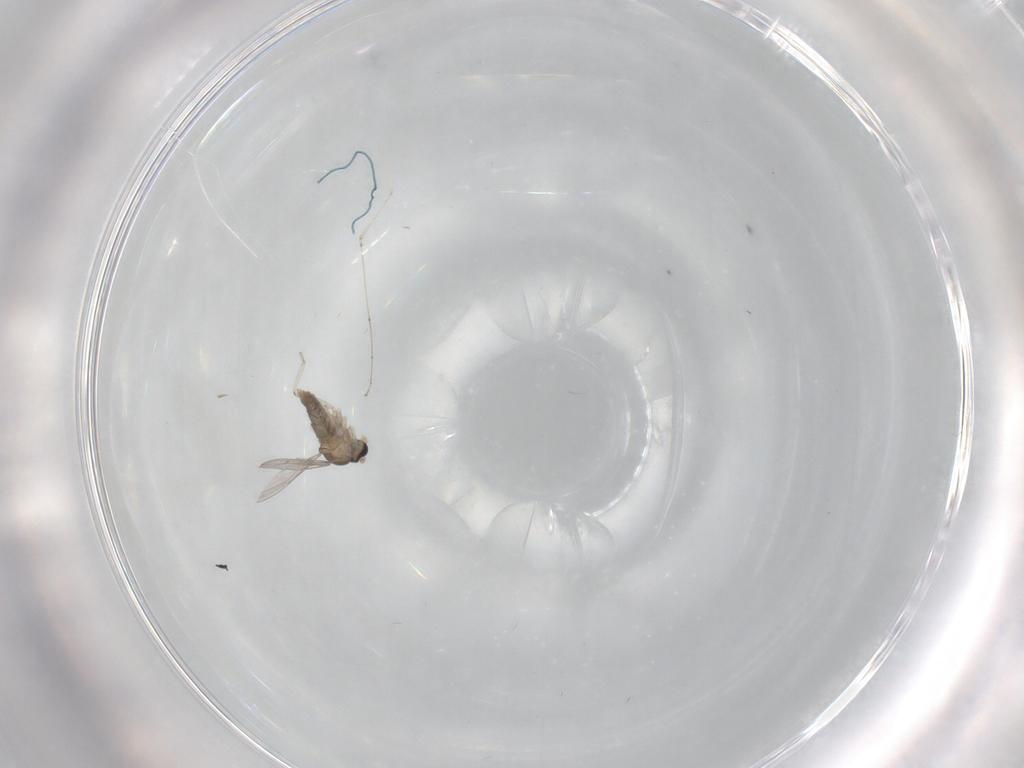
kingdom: Animalia
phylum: Arthropoda
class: Insecta
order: Diptera
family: Cecidomyiidae
